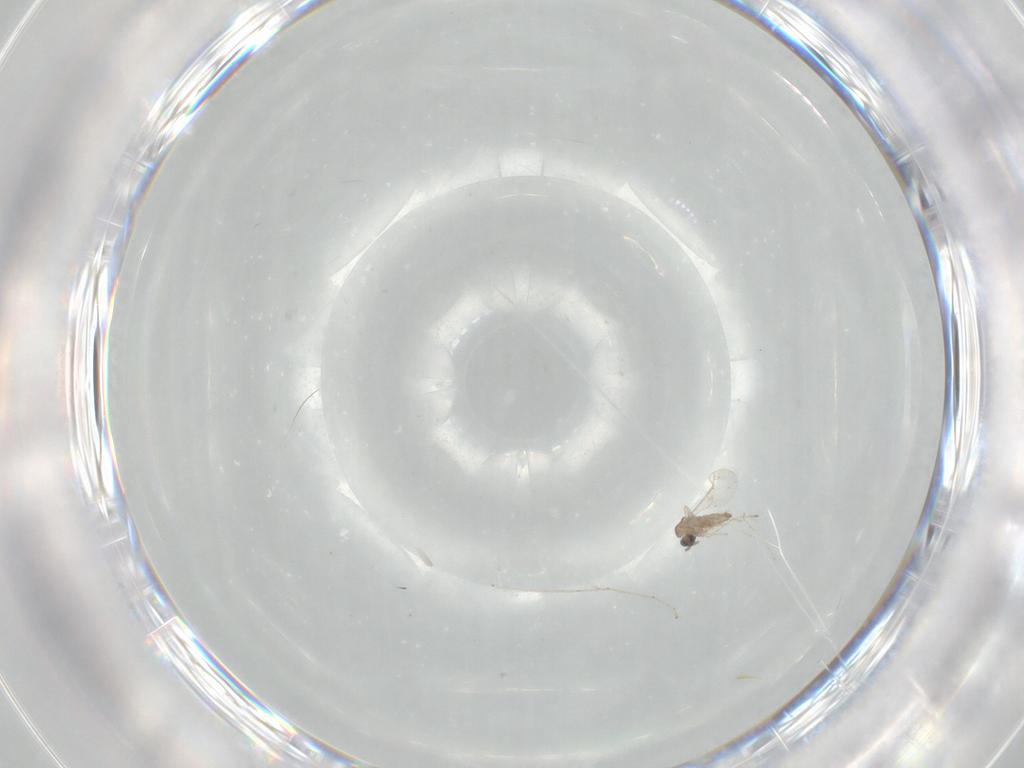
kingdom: Animalia
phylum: Arthropoda
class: Insecta
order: Diptera
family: Cecidomyiidae
